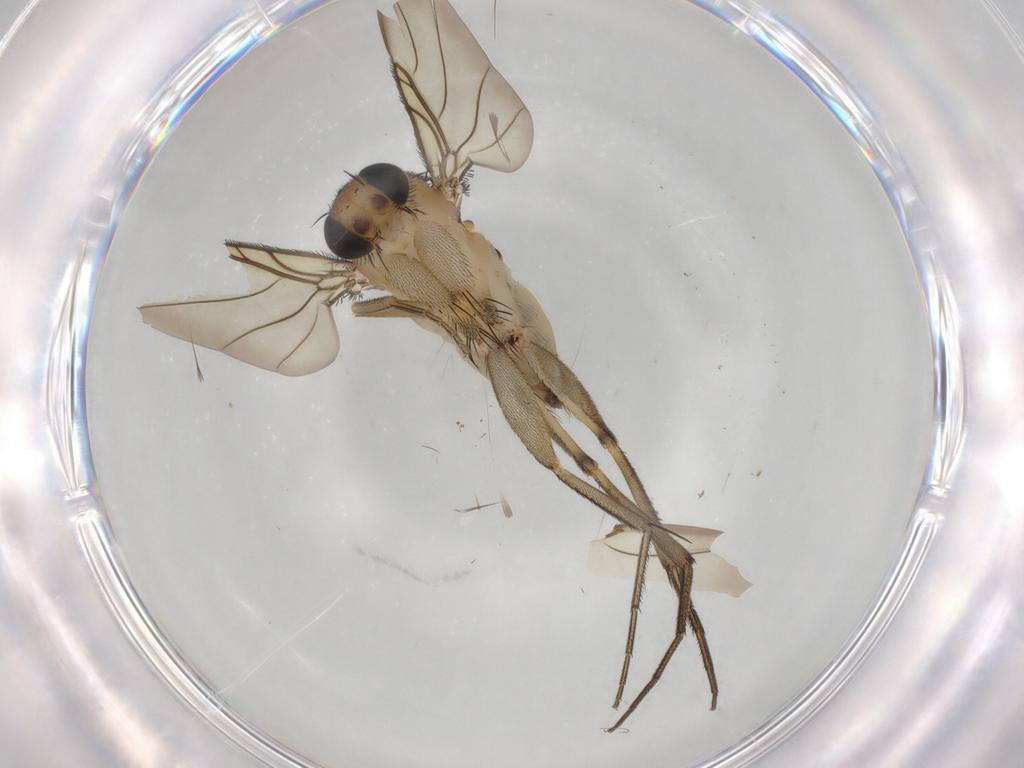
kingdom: Animalia
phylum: Arthropoda
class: Insecta
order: Diptera
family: Phoridae
